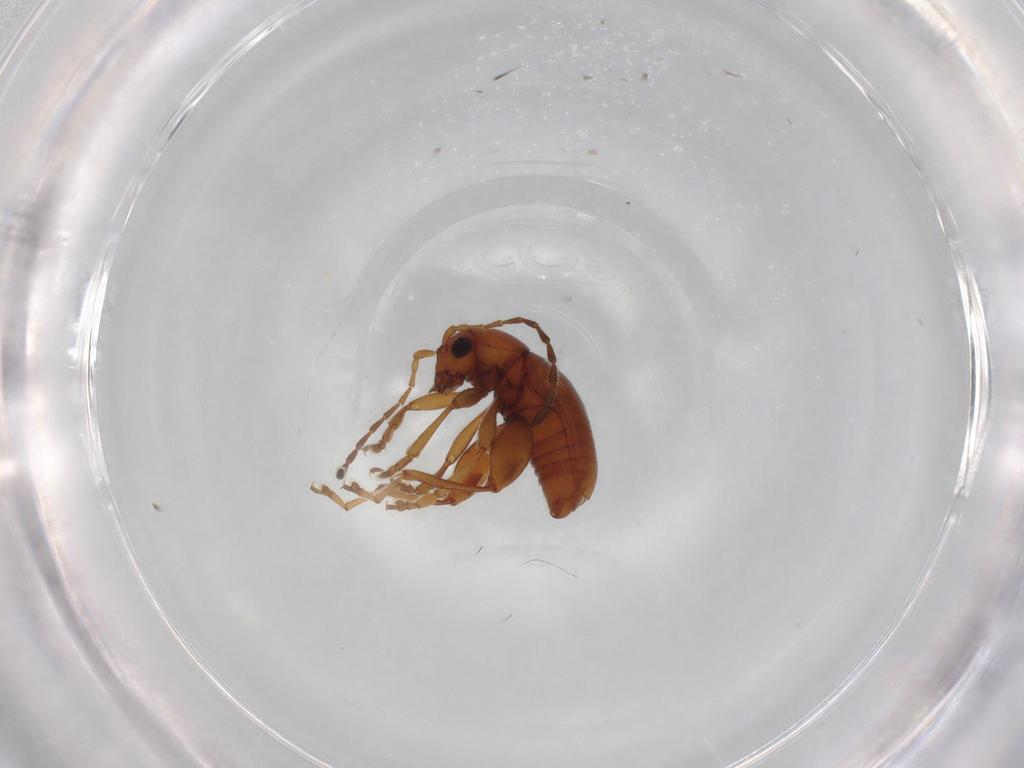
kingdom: Animalia
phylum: Arthropoda
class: Insecta
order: Coleoptera
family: Chrysomelidae
